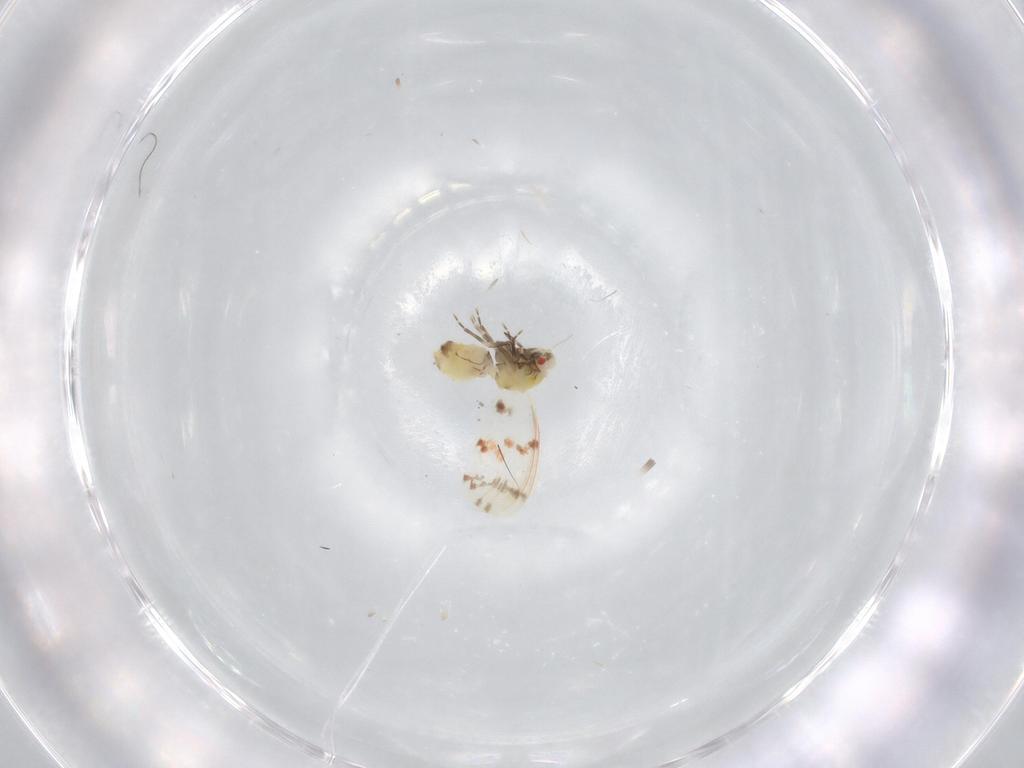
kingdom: Animalia
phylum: Arthropoda
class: Insecta
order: Hemiptera
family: Aleyrodidae
